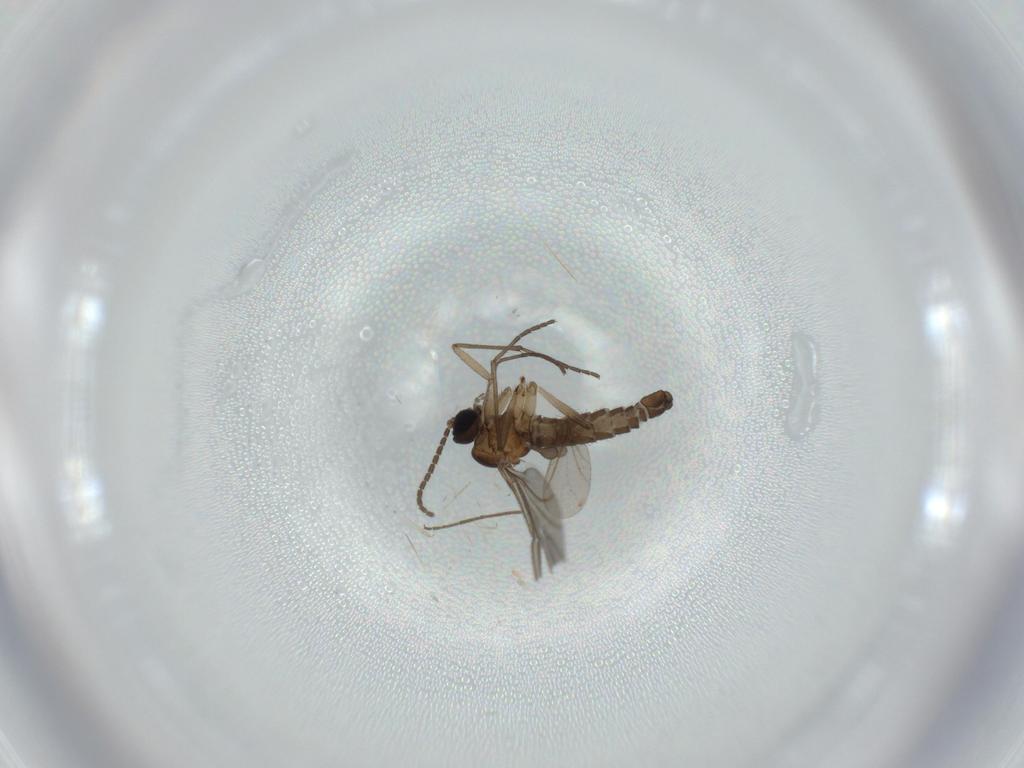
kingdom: Animalia
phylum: Arthropoda
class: Insecta
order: Diptera
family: Chironomidae
